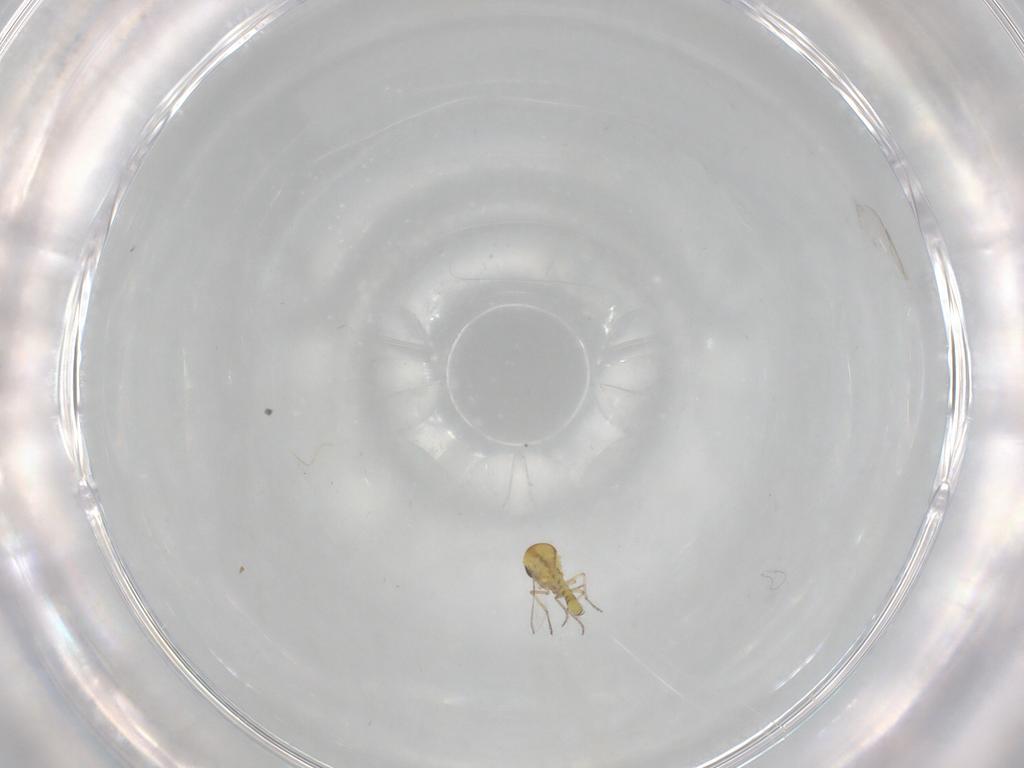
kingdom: Animalia
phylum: Arthropoda
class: Insecta
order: Diptera
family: Ceratopogonidae
